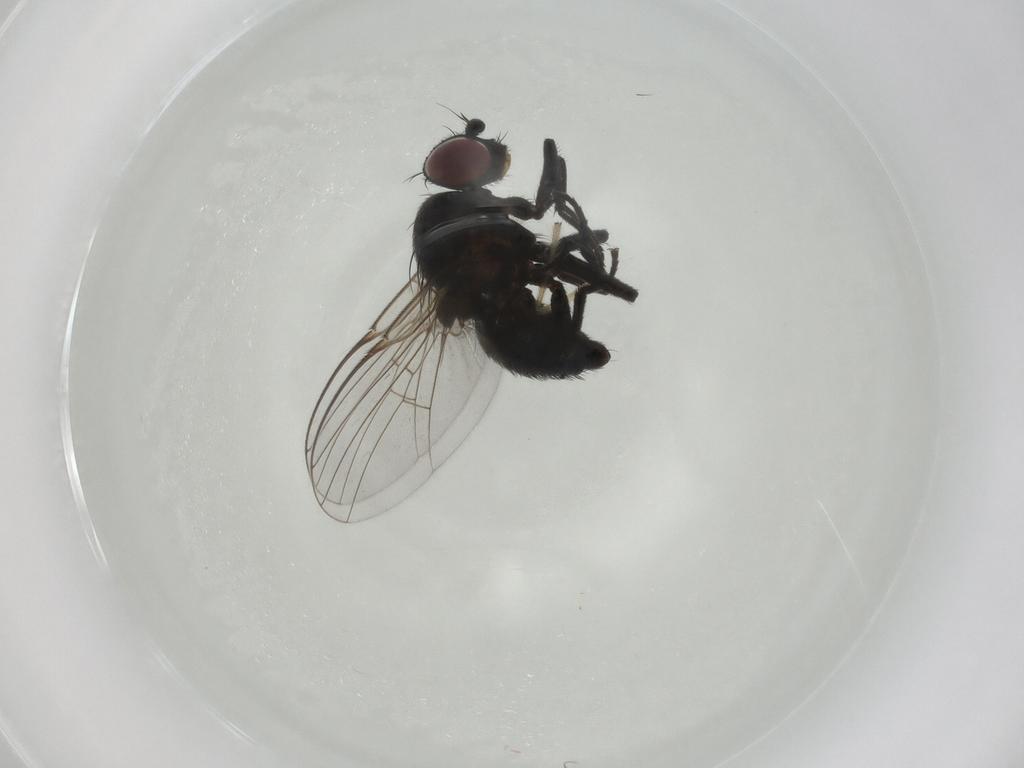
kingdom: Animalia
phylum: Arthropoda
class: Insecta
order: Diptera
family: Agromyzidae
